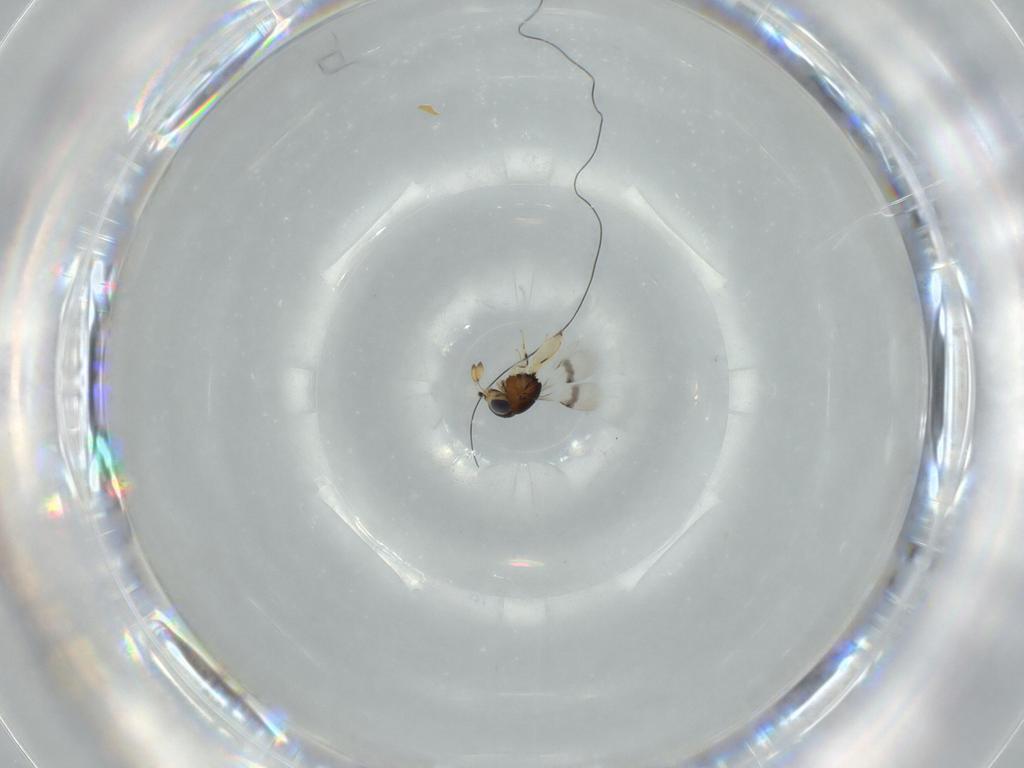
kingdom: Animalia
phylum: Arthropoda
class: Insecta
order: Hymenoptera
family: Scelionidae
